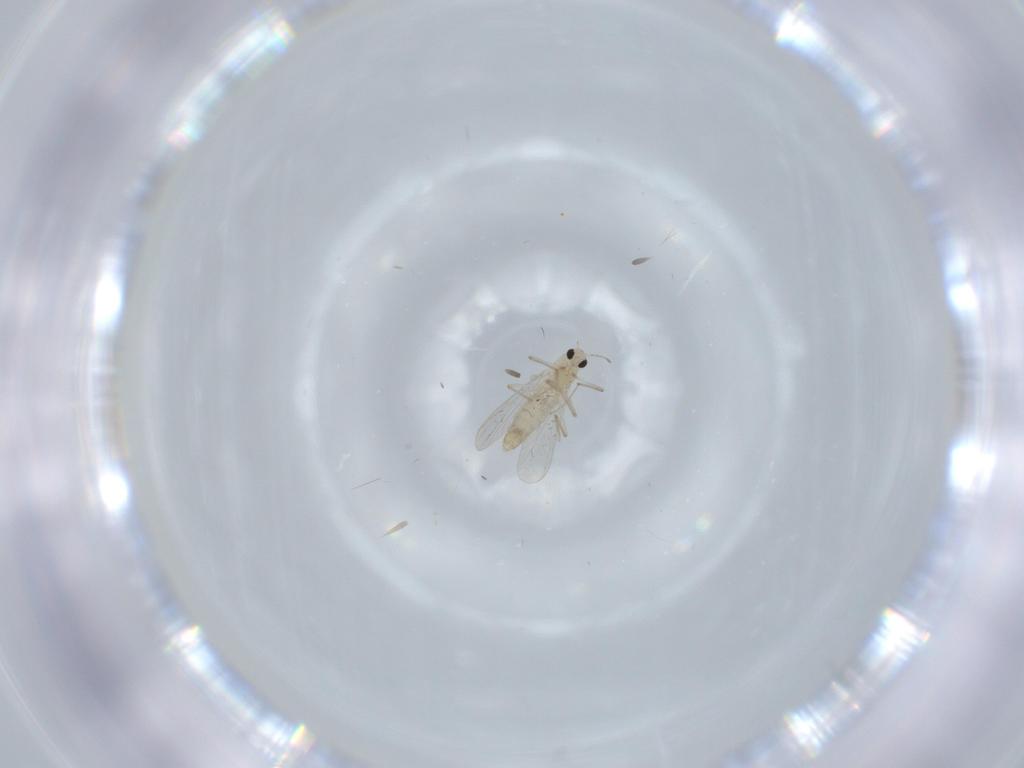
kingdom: Animalia
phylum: Arthropoda
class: Insecta
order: Diptera
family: Chironomidae
